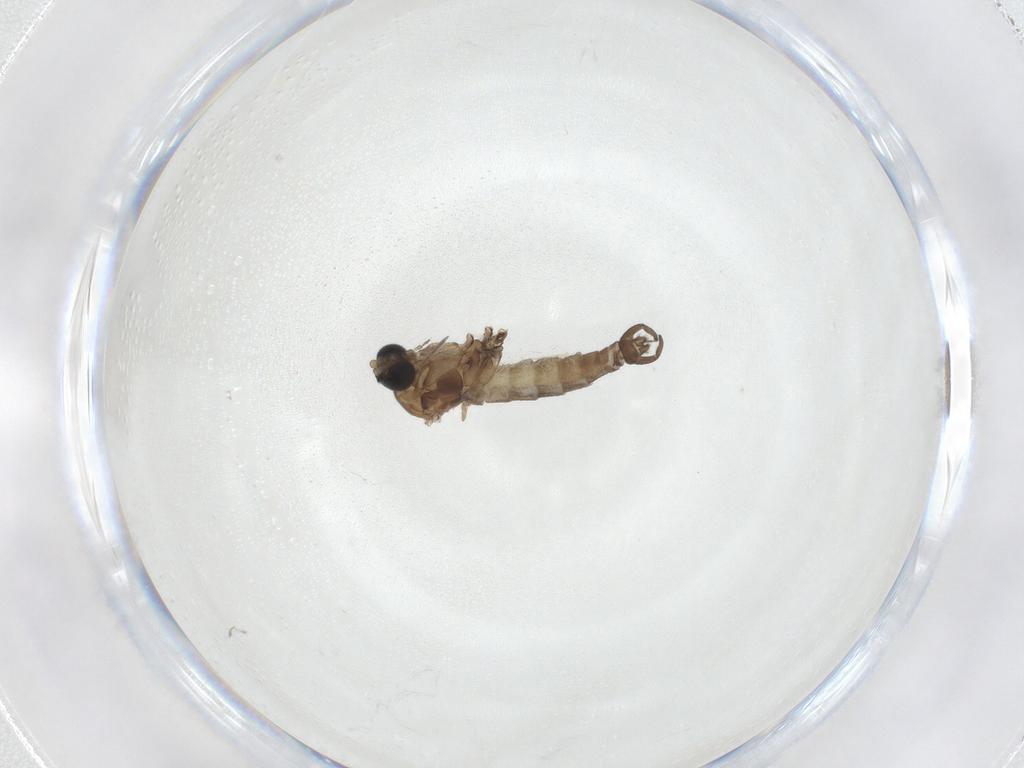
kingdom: Animalia
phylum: Arthropoda
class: Insecta
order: Diptera
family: Sciaridae
